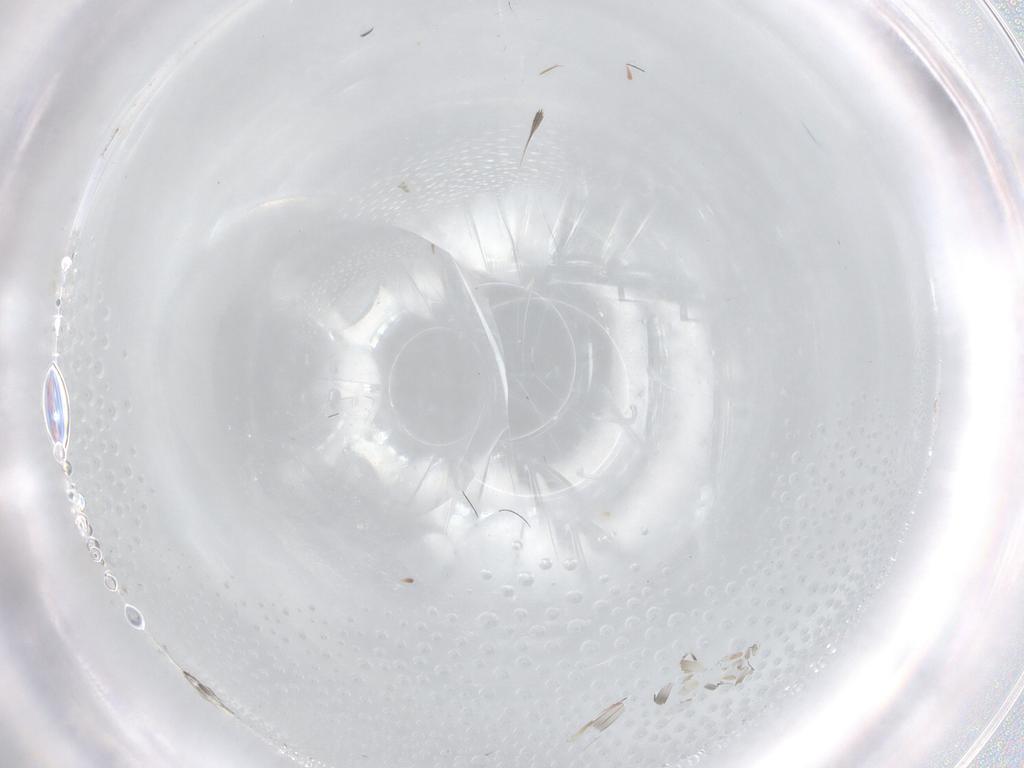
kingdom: Animalia
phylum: Arthropoda
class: Insecta
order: Diptera
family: Psychodidae
